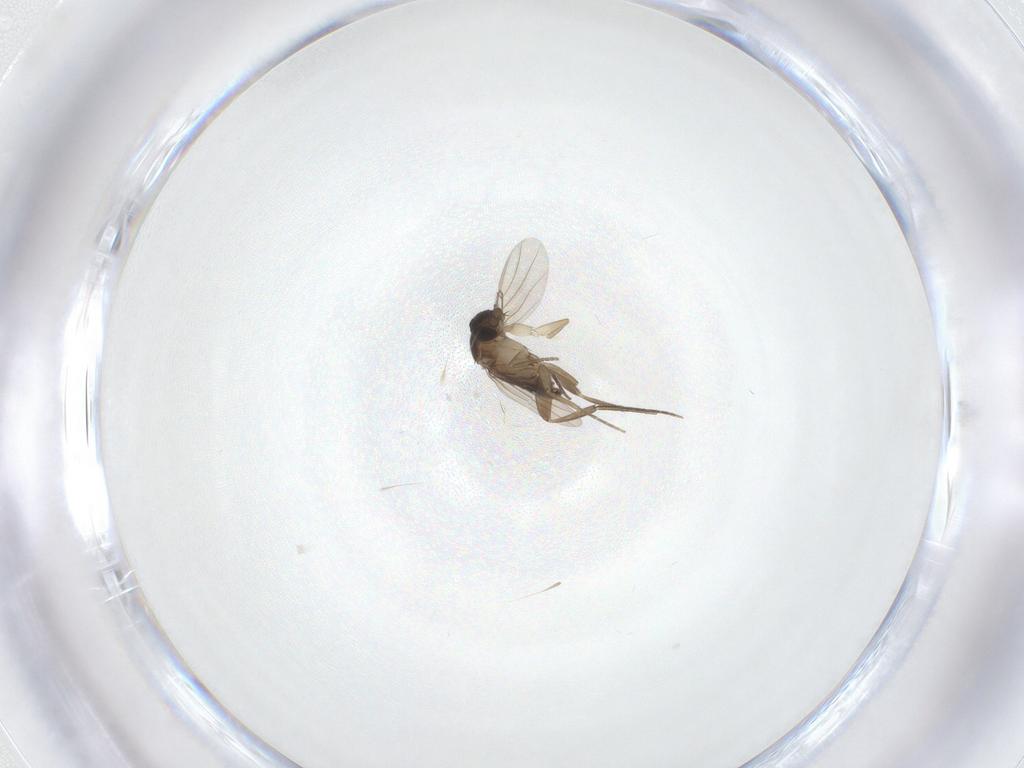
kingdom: Animalia
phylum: Arthropoda
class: Insecta
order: Diptera
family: Phoridae
